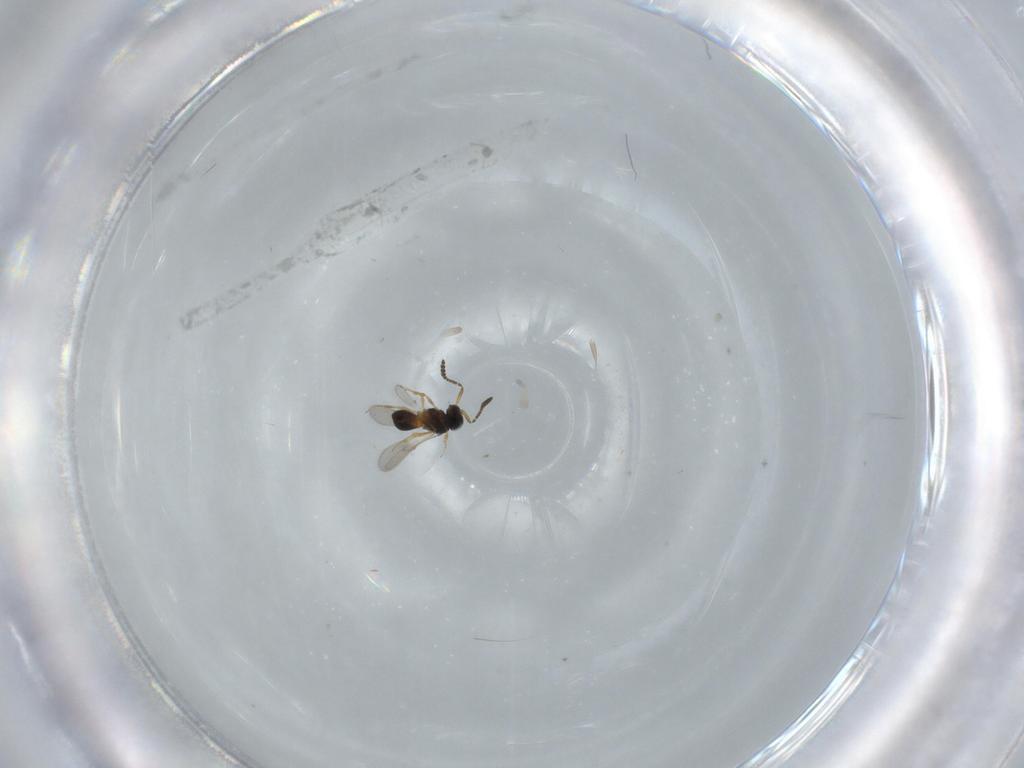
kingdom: Animalia
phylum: Arthropoda
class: Insecta
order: Hymenoptera
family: Scelionidae
